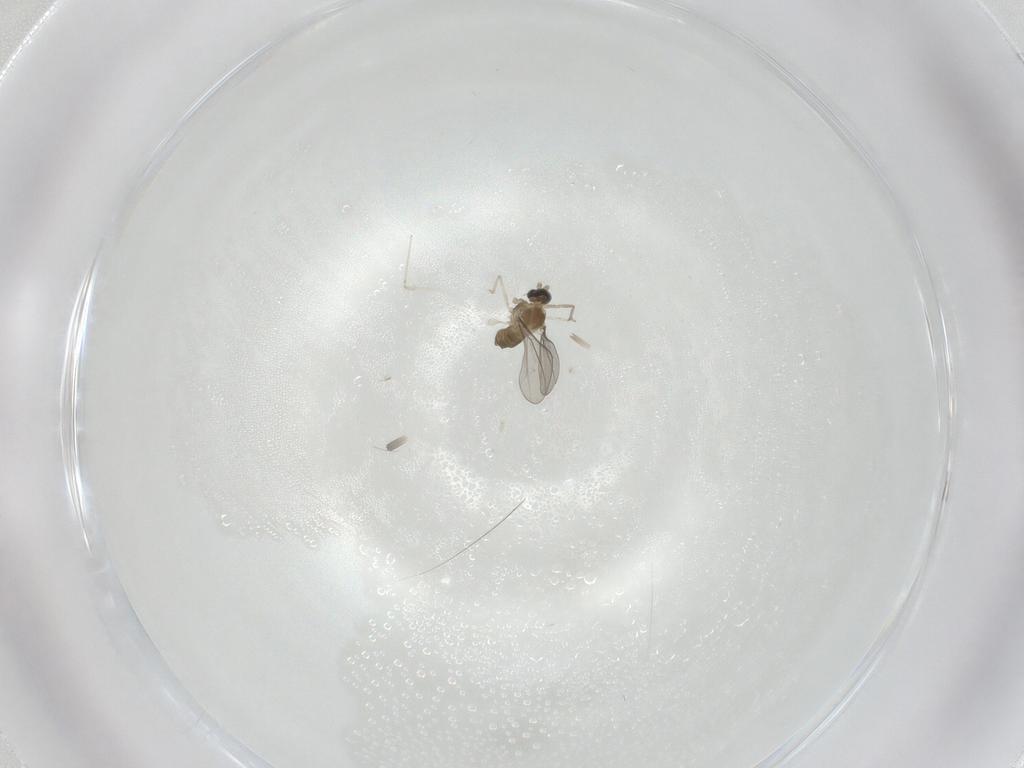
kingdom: Animalia
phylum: Arthropoda
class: Insecta
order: Diptera
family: Cecidomyiidae
